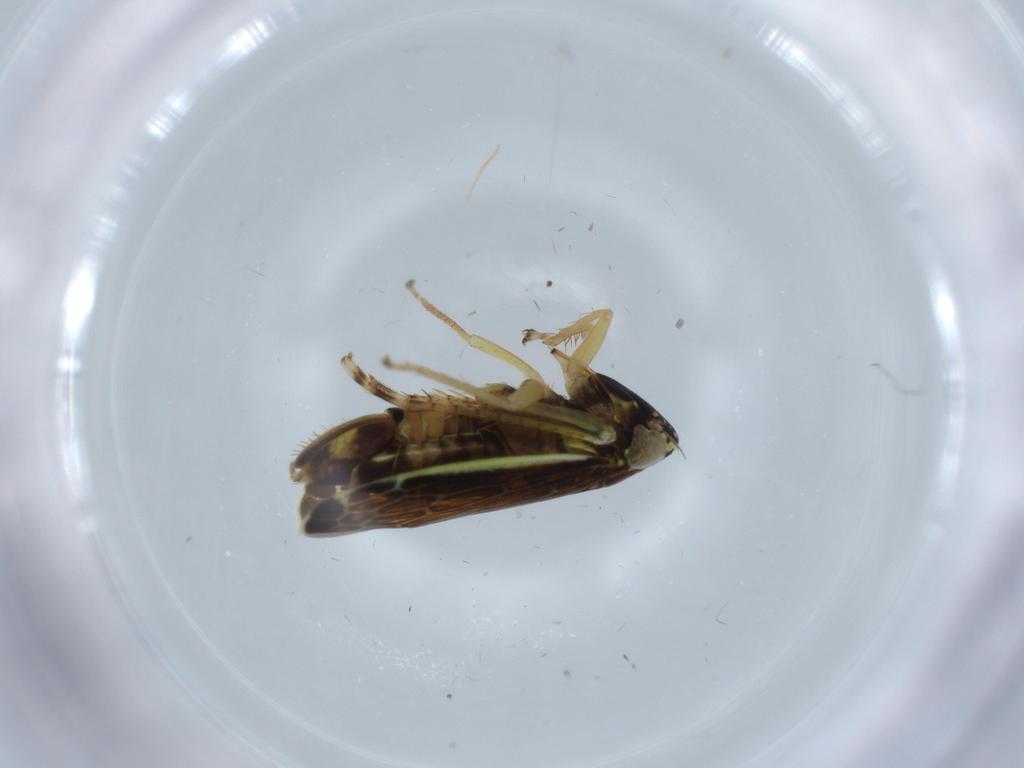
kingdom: Animalia
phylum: Arthropoda
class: Insecta
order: Hemiptera
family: Cicadellidae
